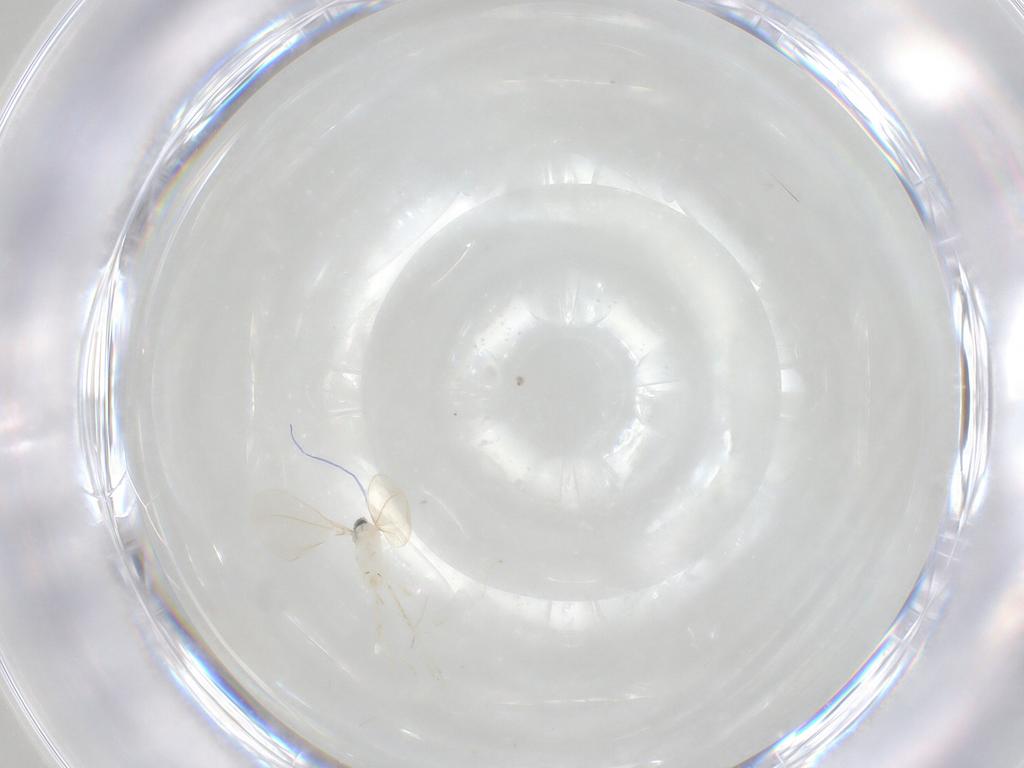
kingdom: Animalia
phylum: Arthropoda
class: Insecta
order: Diptera
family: Cecidomyiidae
